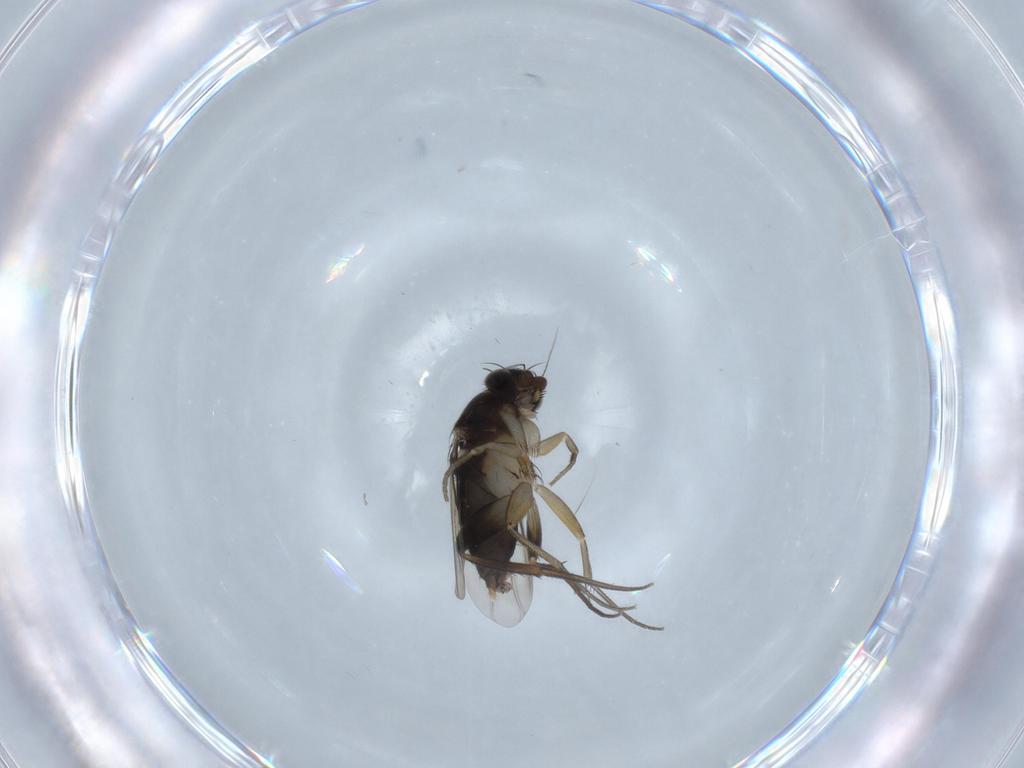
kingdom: Animalia
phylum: Arthropoda
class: Insecta
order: Diptera
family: Phoridae
